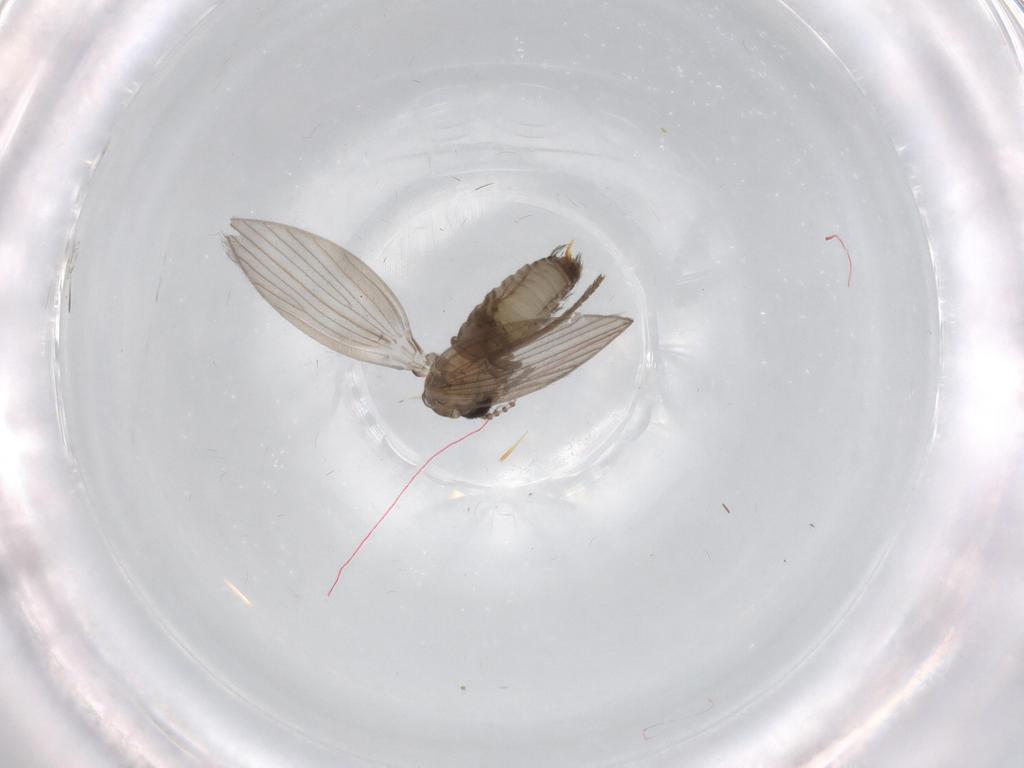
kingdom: Animalia
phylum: Arthropoda
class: Insecta
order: Diptera
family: Psychodidae
